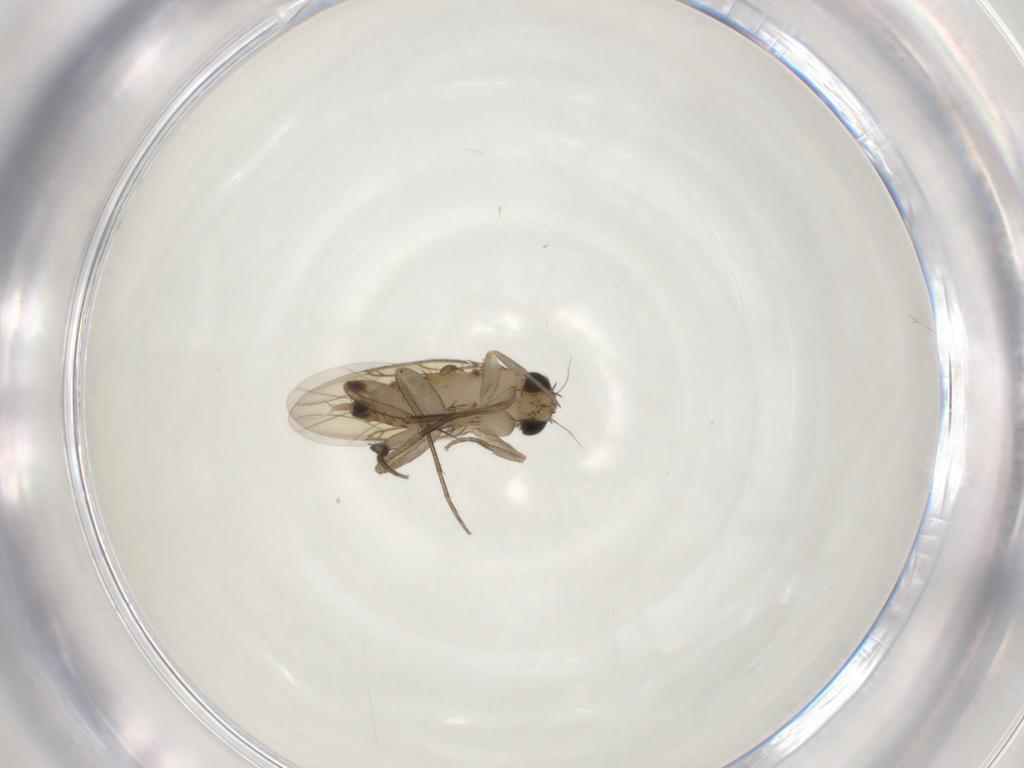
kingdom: Animalia
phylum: Arthropoda
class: Insecta
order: Diptera
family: Phoridae
